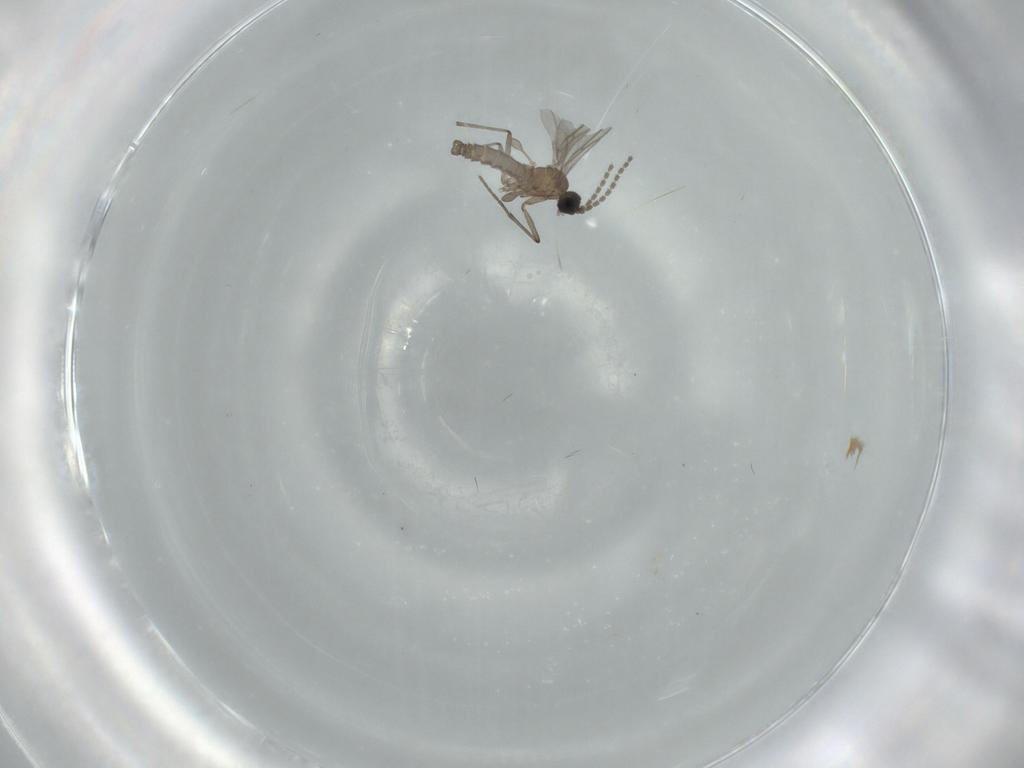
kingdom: Animalia
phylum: Arthropoda
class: Insecta
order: Diptera
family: Sciaridae
